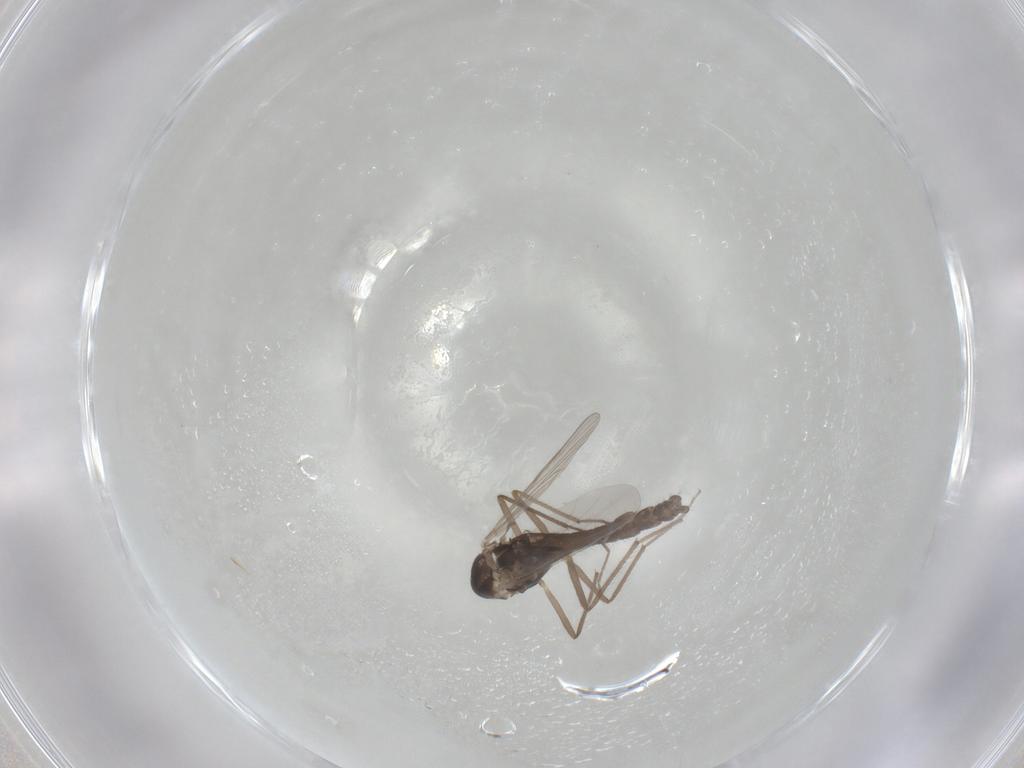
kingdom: Animalia
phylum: Arthropoda
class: Insecta
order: Diptera
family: Chironomidae
